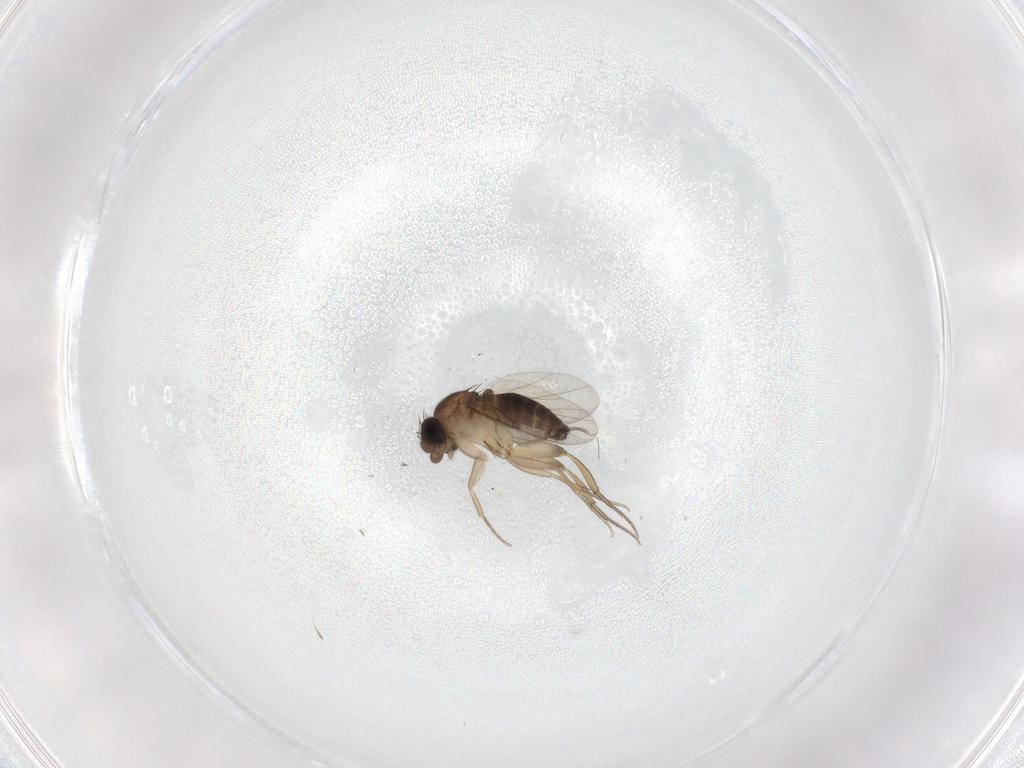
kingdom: Animalia
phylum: Arthropoda
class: Insecta
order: Diptera
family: Phoridae
